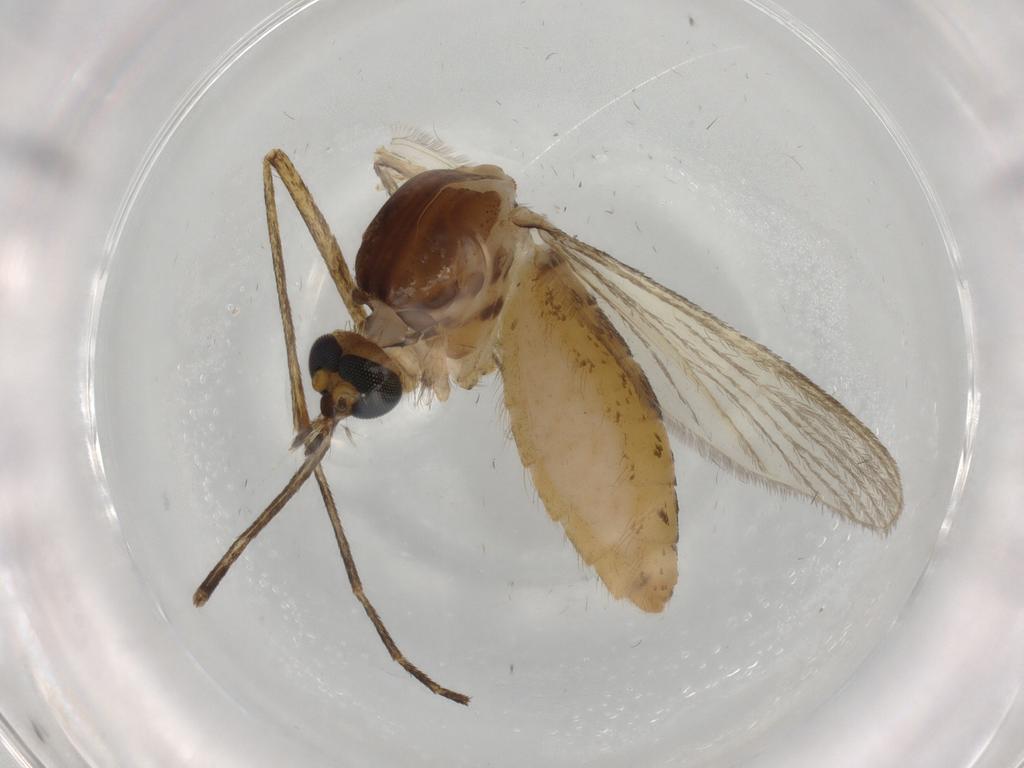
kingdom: Animalia
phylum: Arthropoda
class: Insecta
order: Diptera
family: Culicidae
